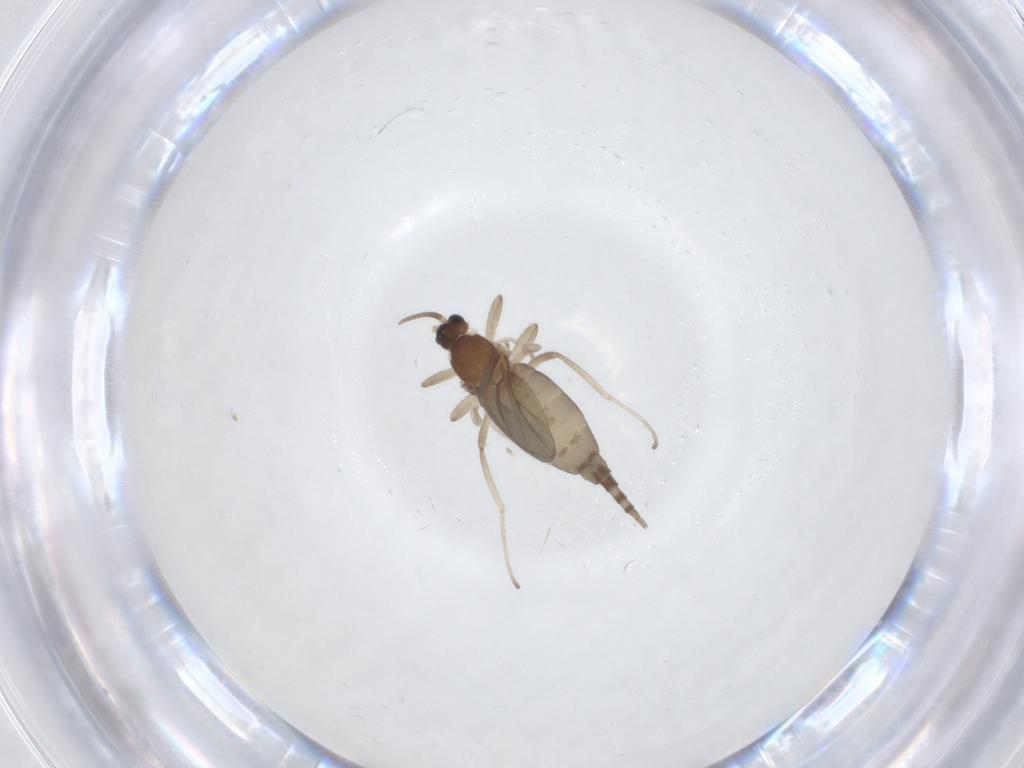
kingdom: Animalia
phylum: Arthropoda
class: Insecta
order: Diptera
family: Cecidomyiidae
